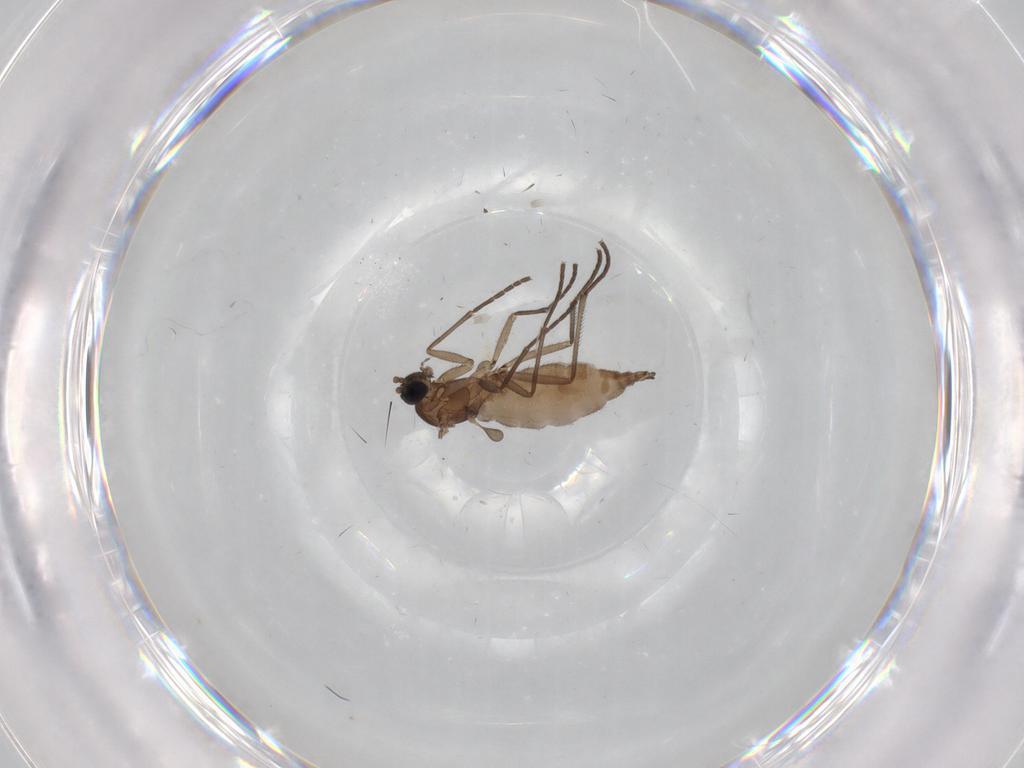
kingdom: Animalia
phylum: Arthropoda
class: Insecta
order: Diptera
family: Sciaridae
